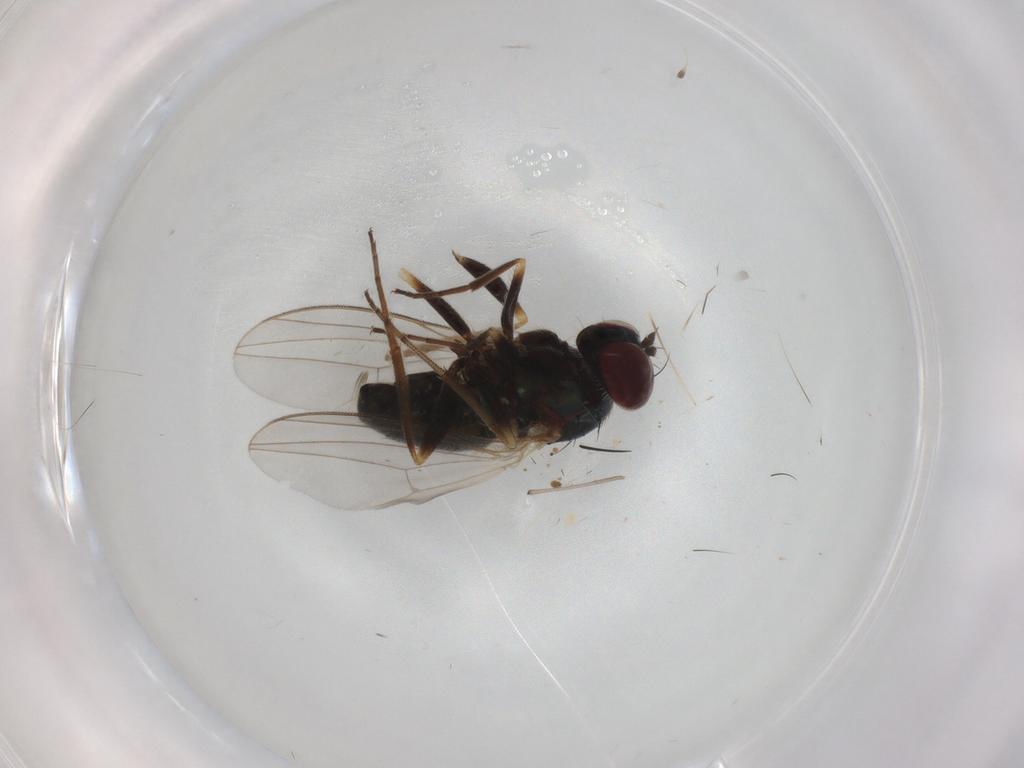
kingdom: Animalia
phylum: Arthropoda
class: Insecta
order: Diptera
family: Dolichopodidae
